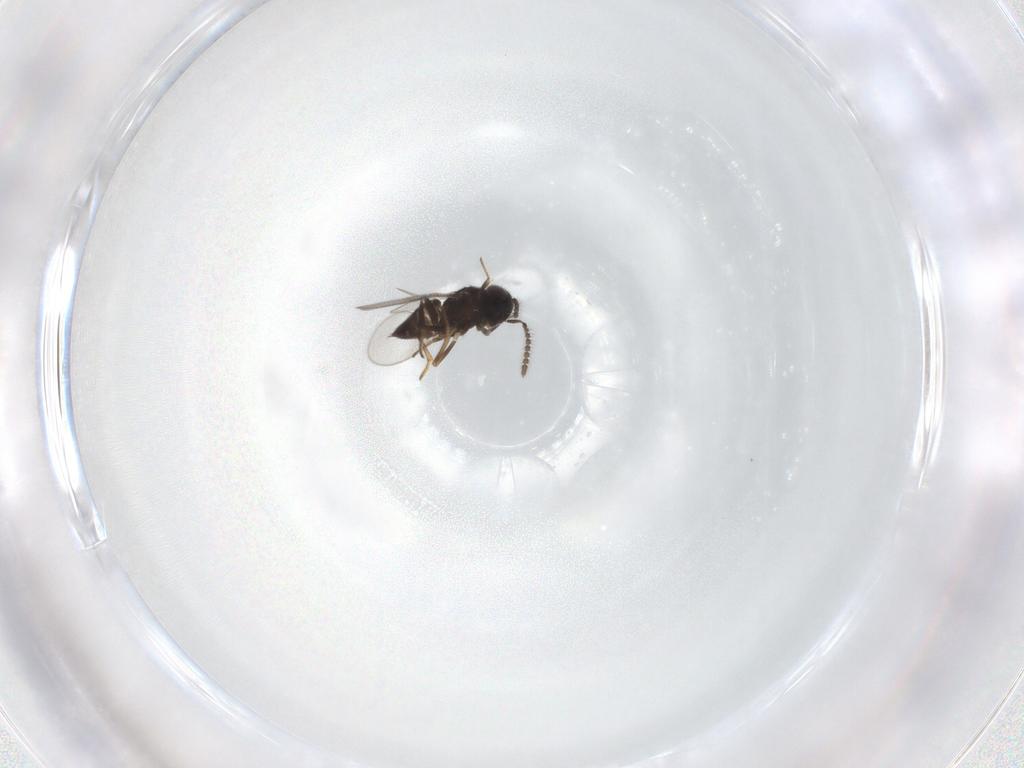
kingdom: Animalia
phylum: Arthropoda
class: Insecta
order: Hymenoptera
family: Encyrtidae
